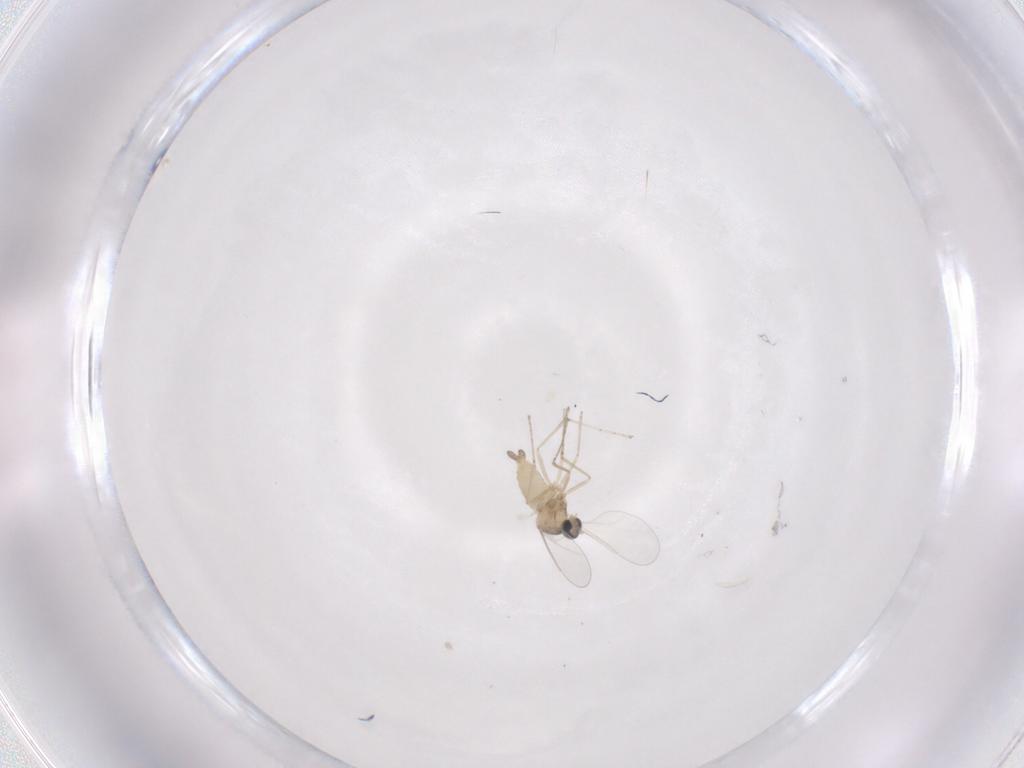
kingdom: Animalia
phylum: Arthropoda
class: Insecta
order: Diptera
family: Cecidomyiidae
